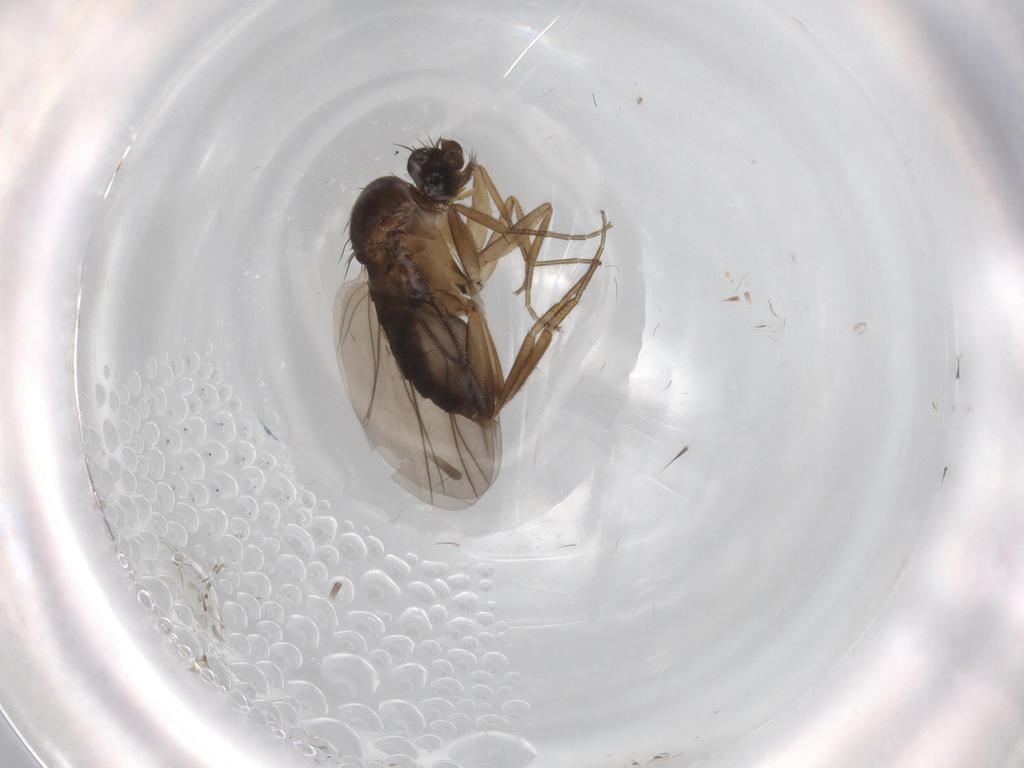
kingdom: Animalia
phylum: Arthropoda
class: Insecta
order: Diptera
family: Phoridae
